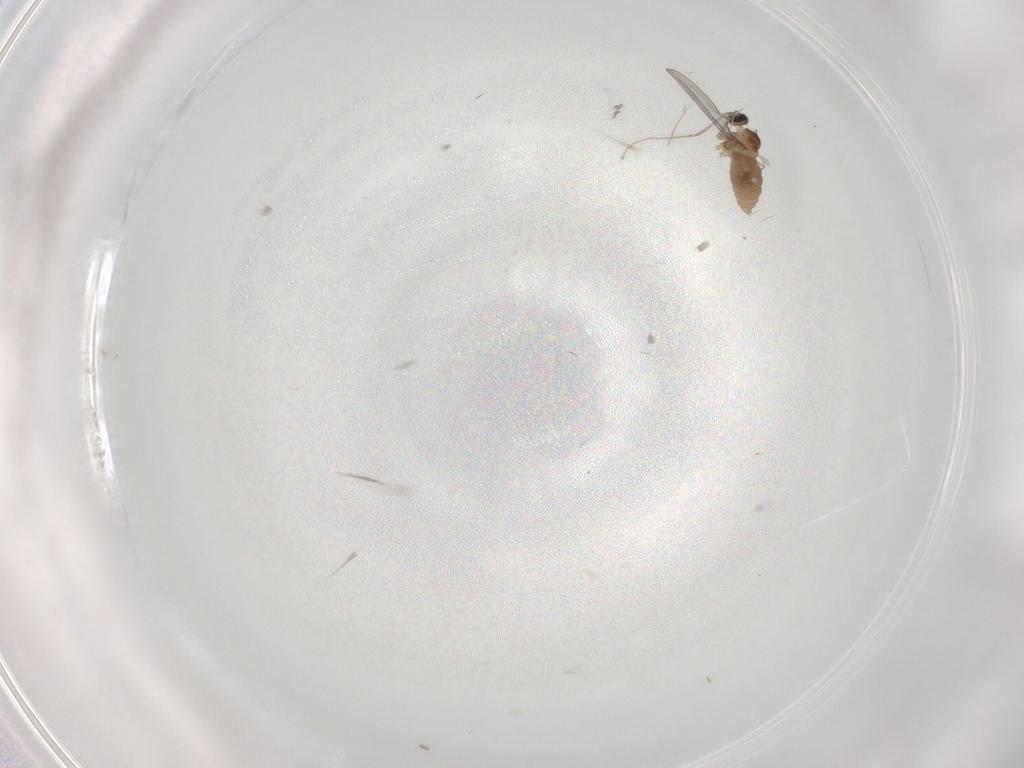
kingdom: Animalia
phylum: Arthropoda
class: Insecta
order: Diptera
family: Cecidomyiidae
